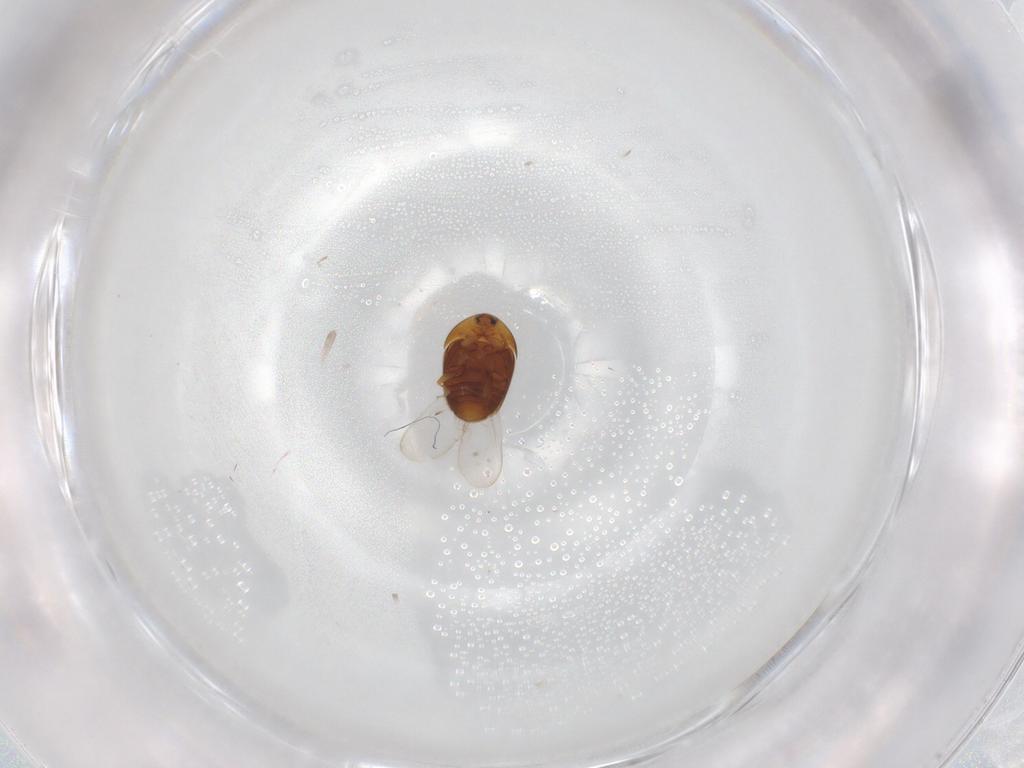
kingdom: Animalia
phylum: Arthropoda
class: Insecta
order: Coleoptera
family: Corylophidae
